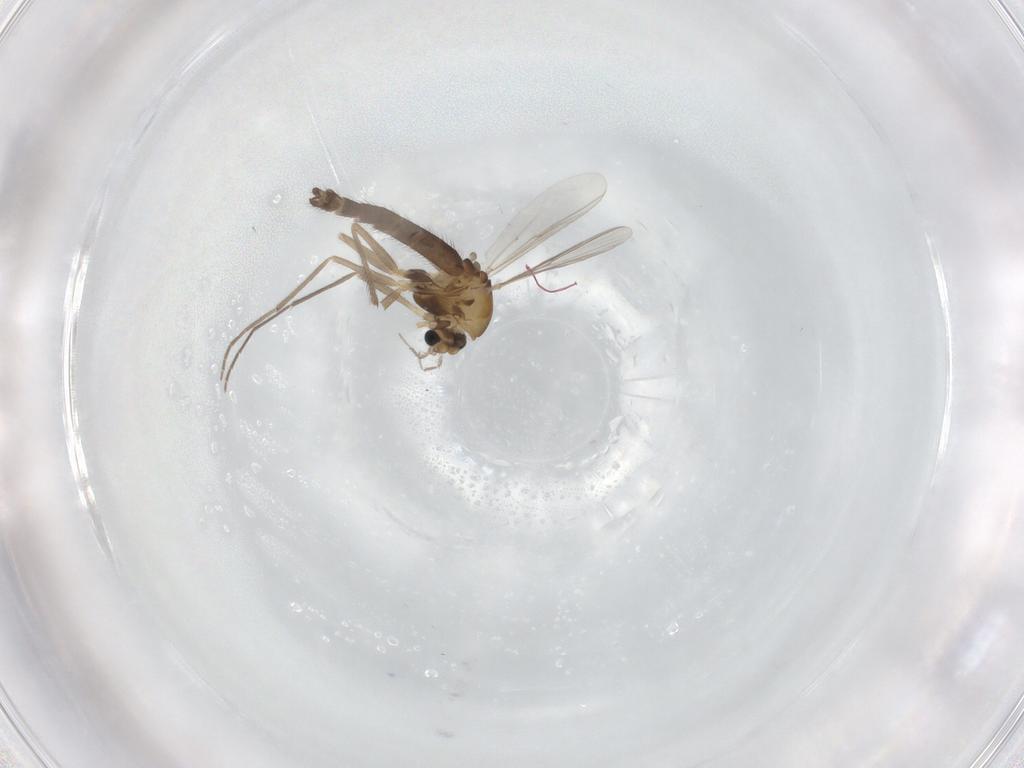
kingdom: Animalia
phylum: Arthropoda
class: Insecta
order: Diptera
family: Chironomidae
